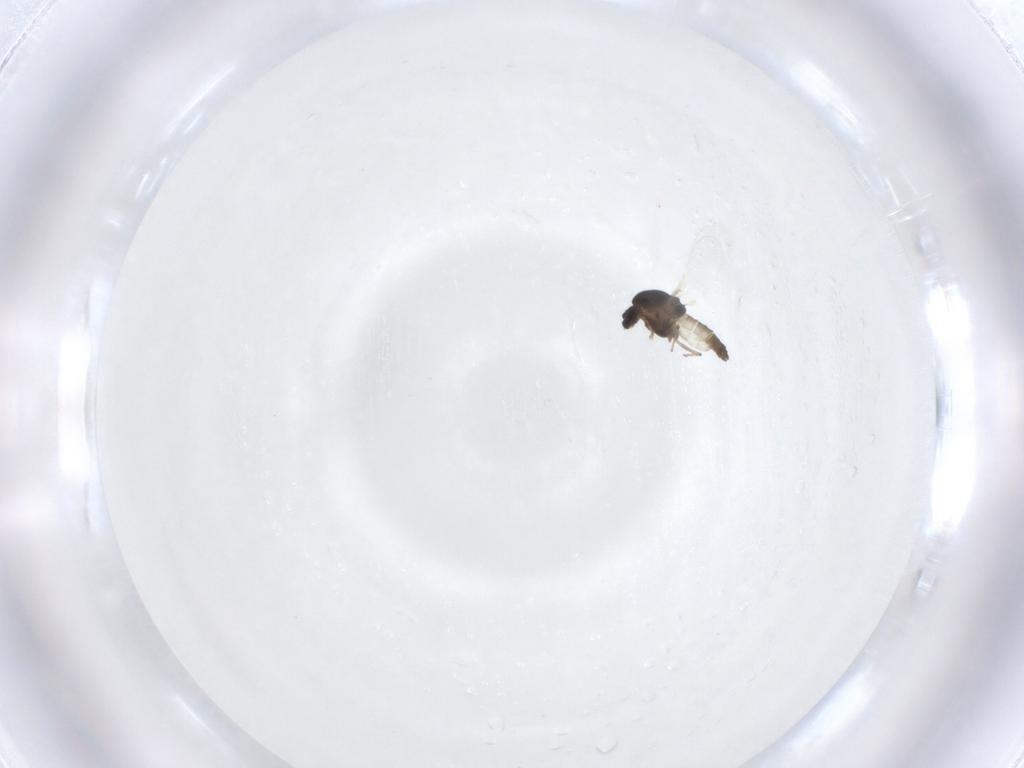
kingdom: Animalia
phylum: Arthropoda
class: Insecta
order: Diptera
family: Chironomidae
